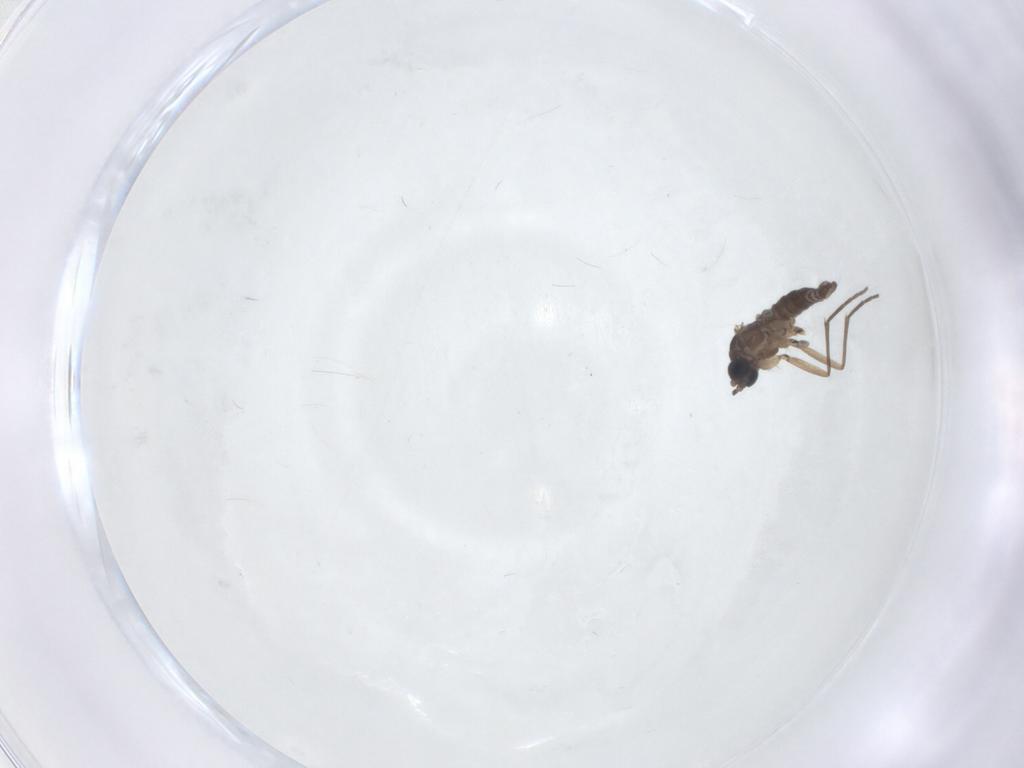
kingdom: Animalia
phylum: Arthropoda
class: Insecta
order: Diptera
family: Sciaridae
